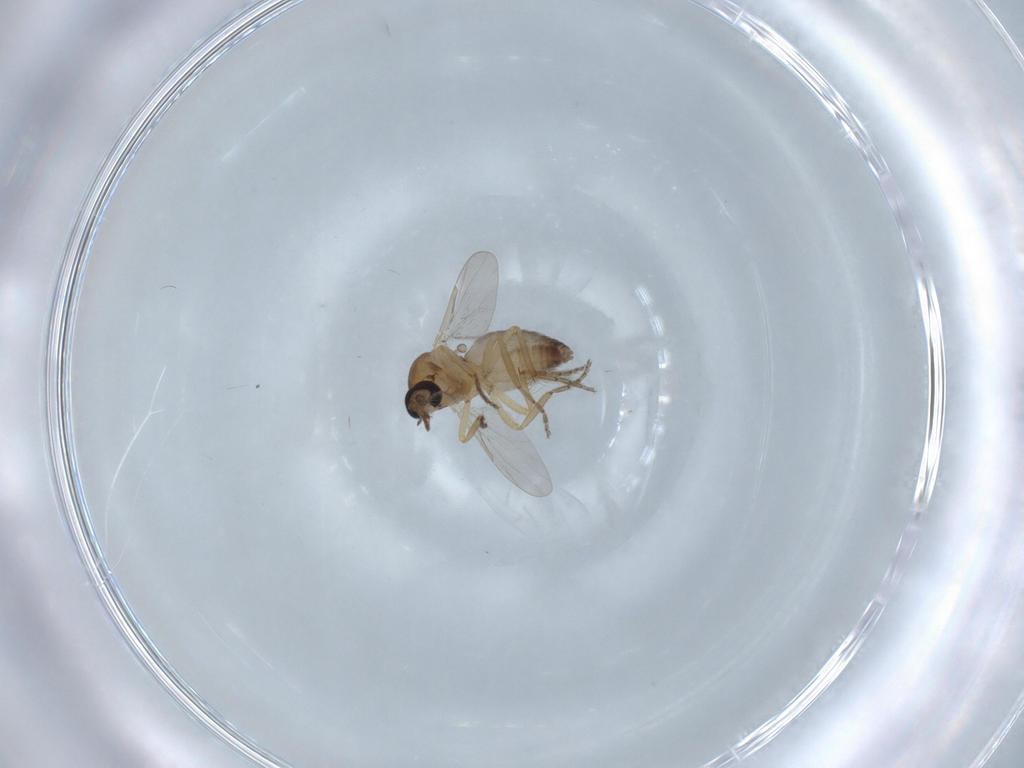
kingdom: Animalia
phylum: Arthropoda
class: Insecta
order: Diptera
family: Ceratopogonidae
